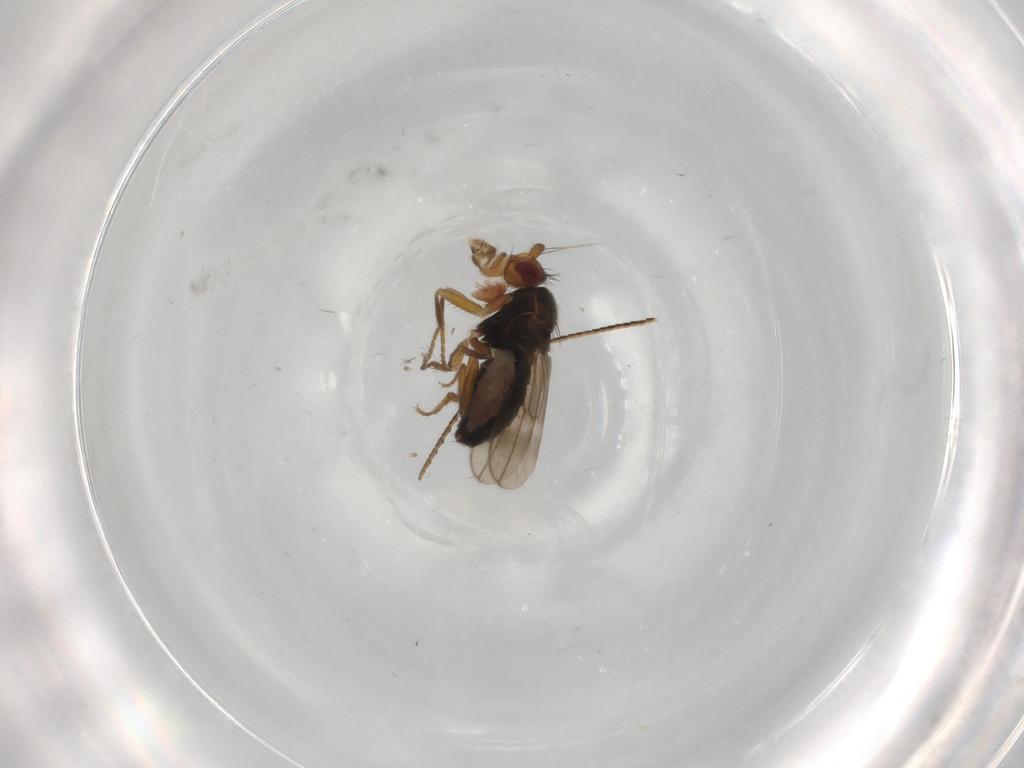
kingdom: Animalia
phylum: Arthropoda
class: Insecta
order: Diptera
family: Sphaeroceridae
